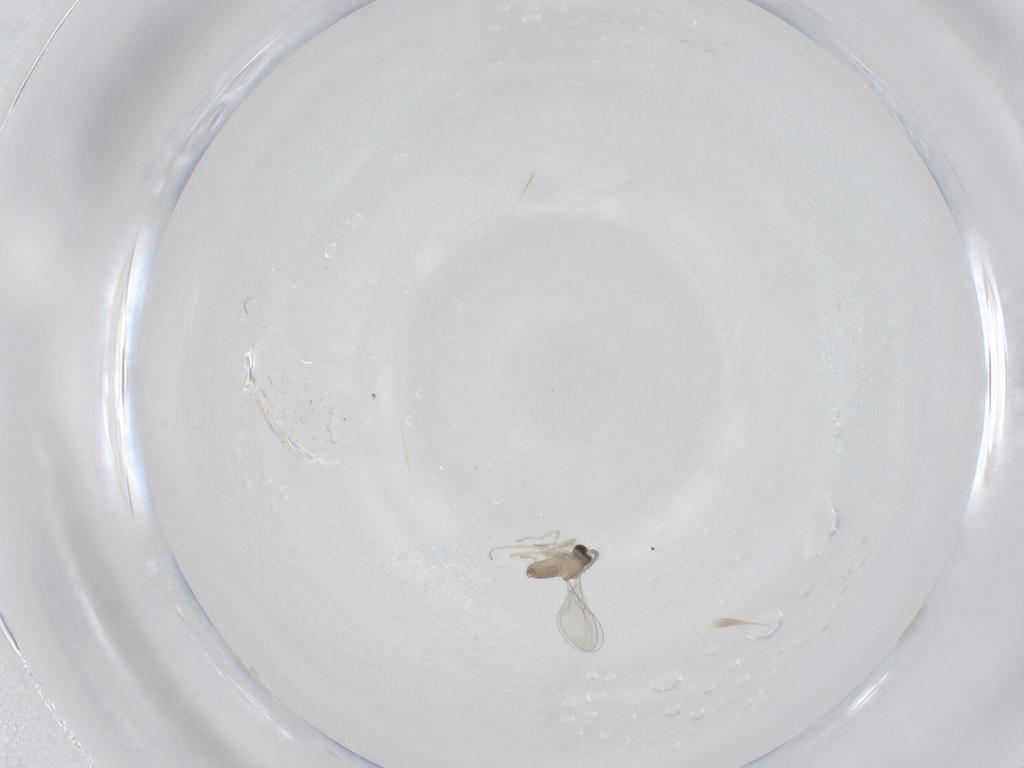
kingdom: Animalia
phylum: Arthropoda
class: Insecta
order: Diptera
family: Cecidomyiidae
